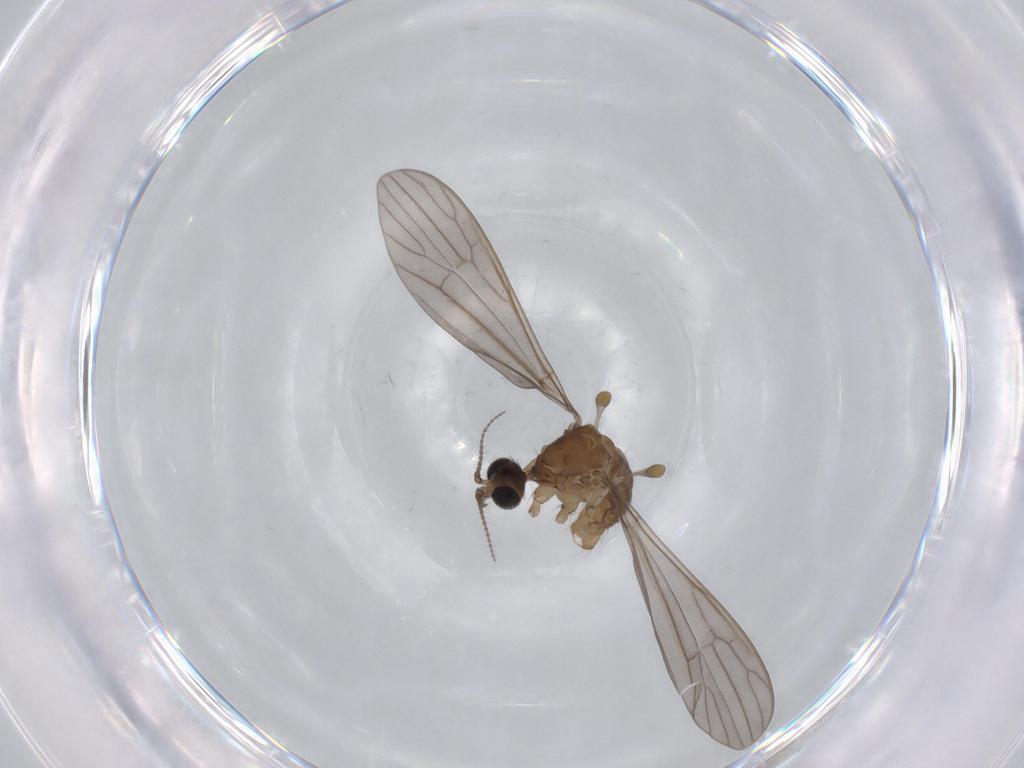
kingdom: Animalia
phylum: Arthropoda
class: Insecta
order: Diptera
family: Limoniidae
